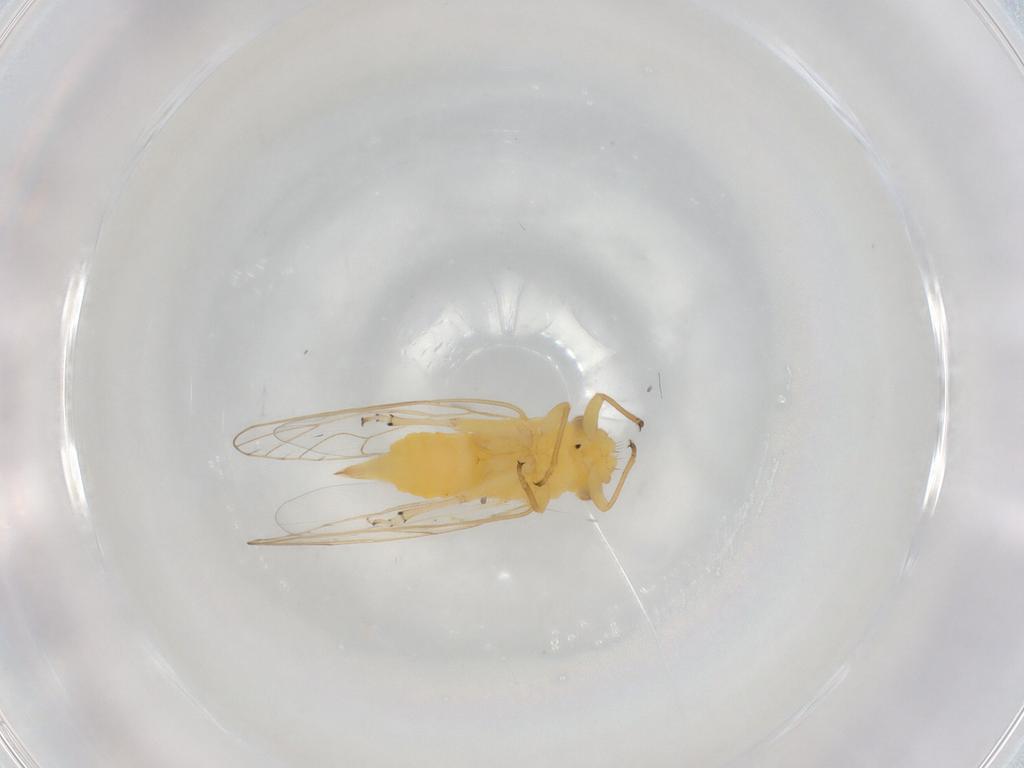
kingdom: Animalia
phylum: Arthropoda
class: Insecta
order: Hemiptera
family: Psyllidae
